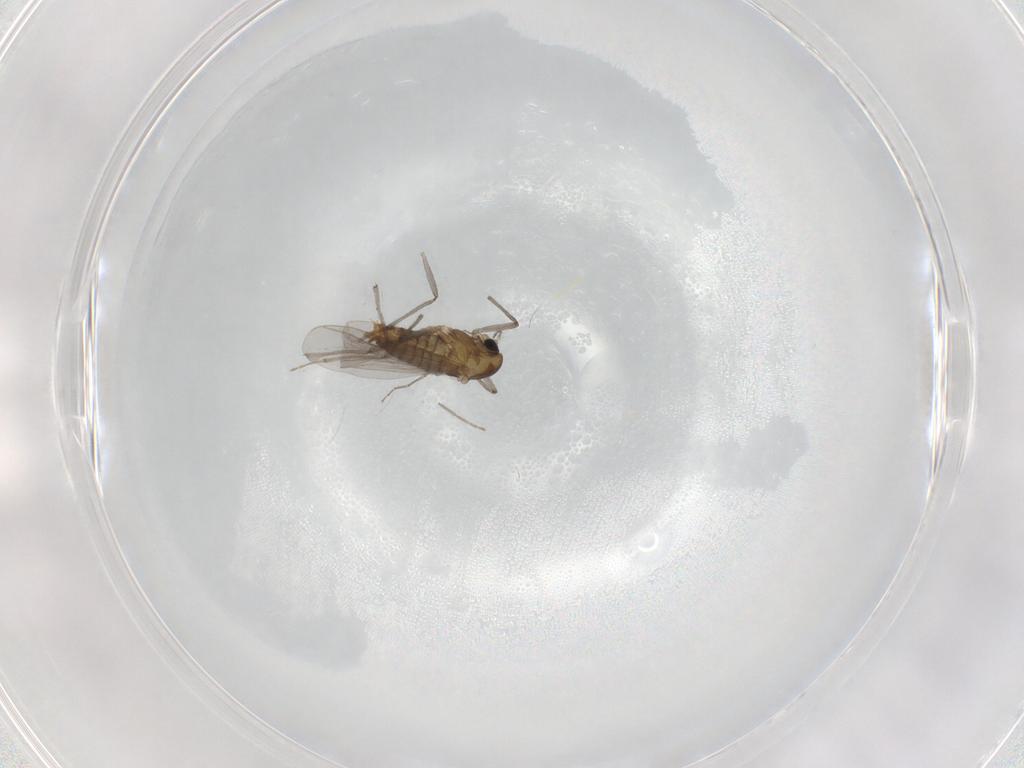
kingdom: Animalia
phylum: Arthropoda
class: Insecta
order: Diptera
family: Chironomidae
